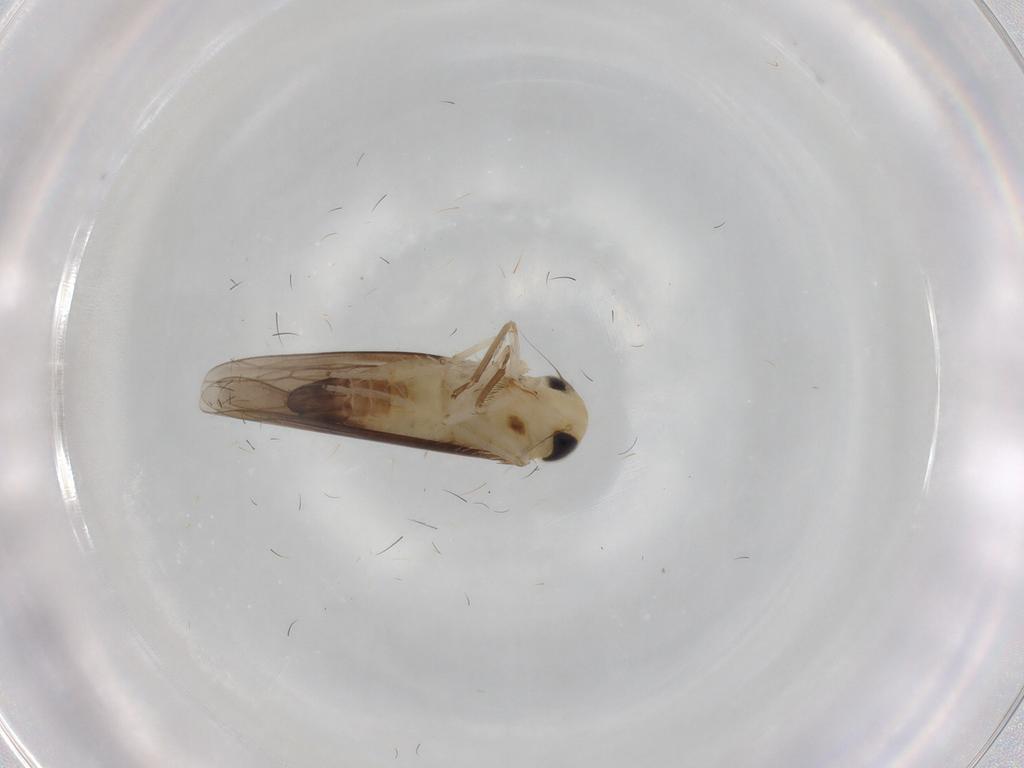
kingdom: Animalia
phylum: Arthropoda
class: Insecta
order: Hemiptera
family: Cicadellidae
